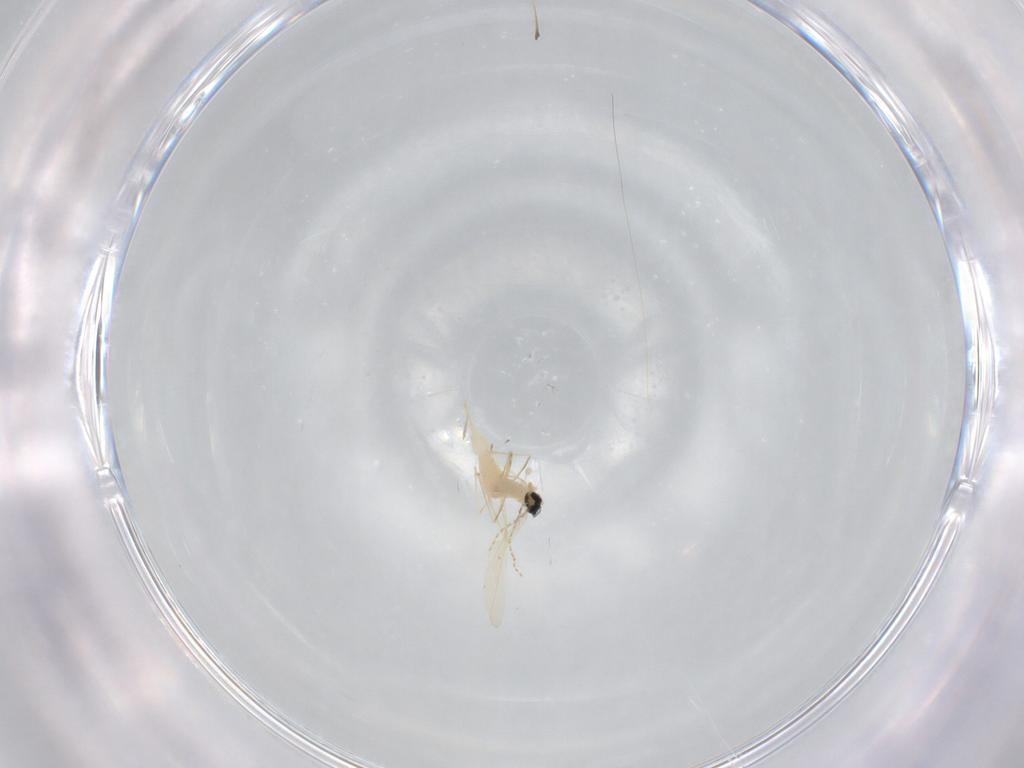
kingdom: Animalia
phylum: Arthropoda
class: Insecta
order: Diptera
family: Cecidomyiidae
